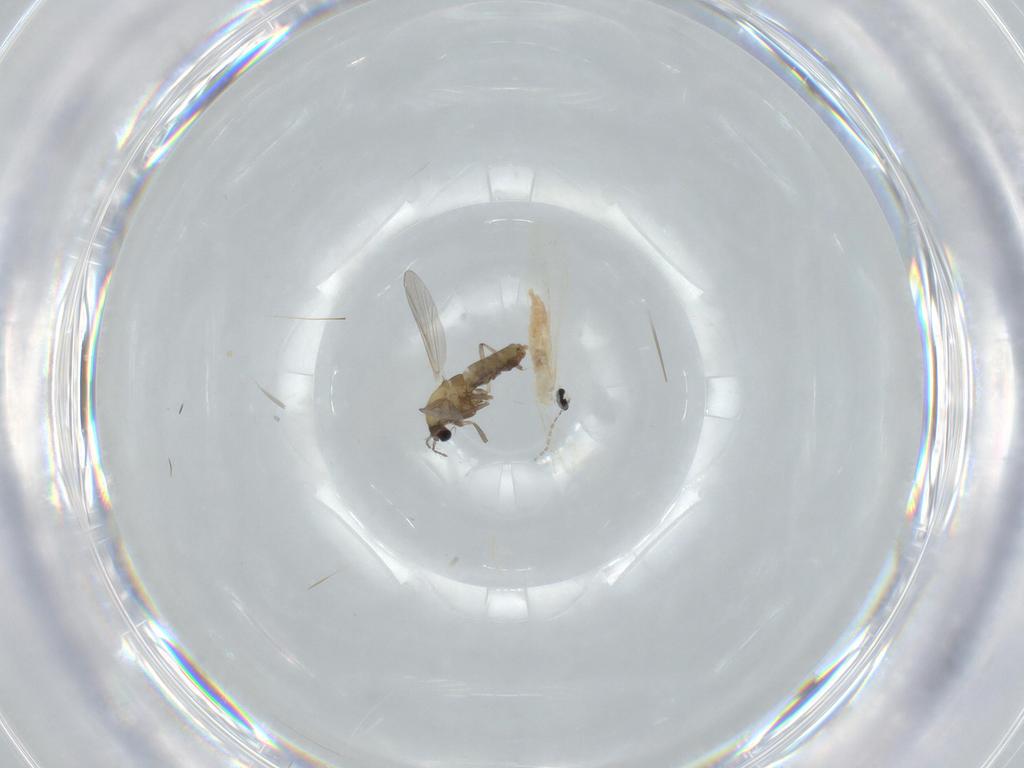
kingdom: Animalia
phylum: Arthropoda
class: Insecta
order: Diptera
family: Chironomidae
